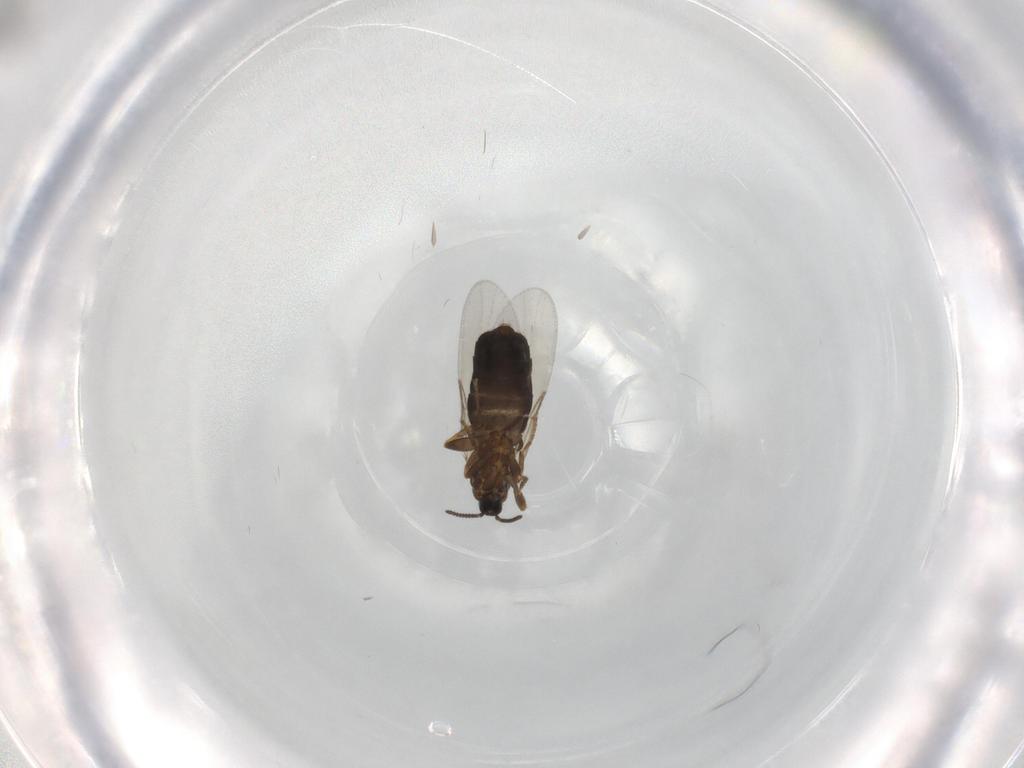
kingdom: Animalia
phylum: Arthropoda
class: Insecta
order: Diptera
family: Scatopsidae
